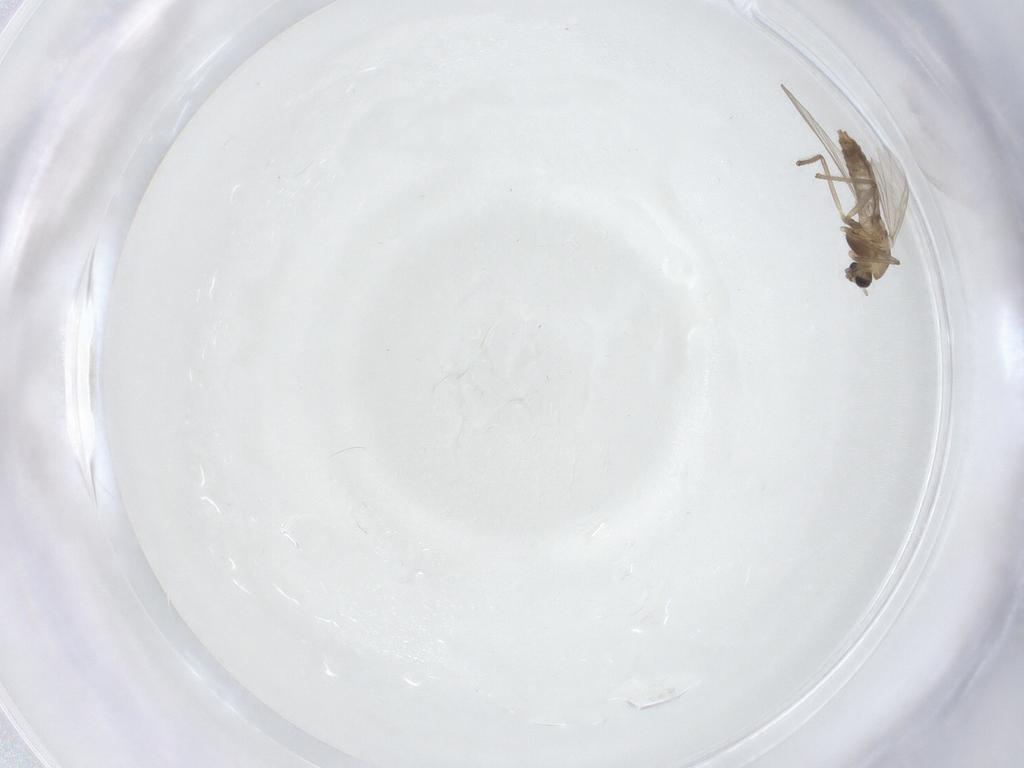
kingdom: Animalia
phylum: Arthropoda
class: Insecta
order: Diptera
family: Chironomidae
